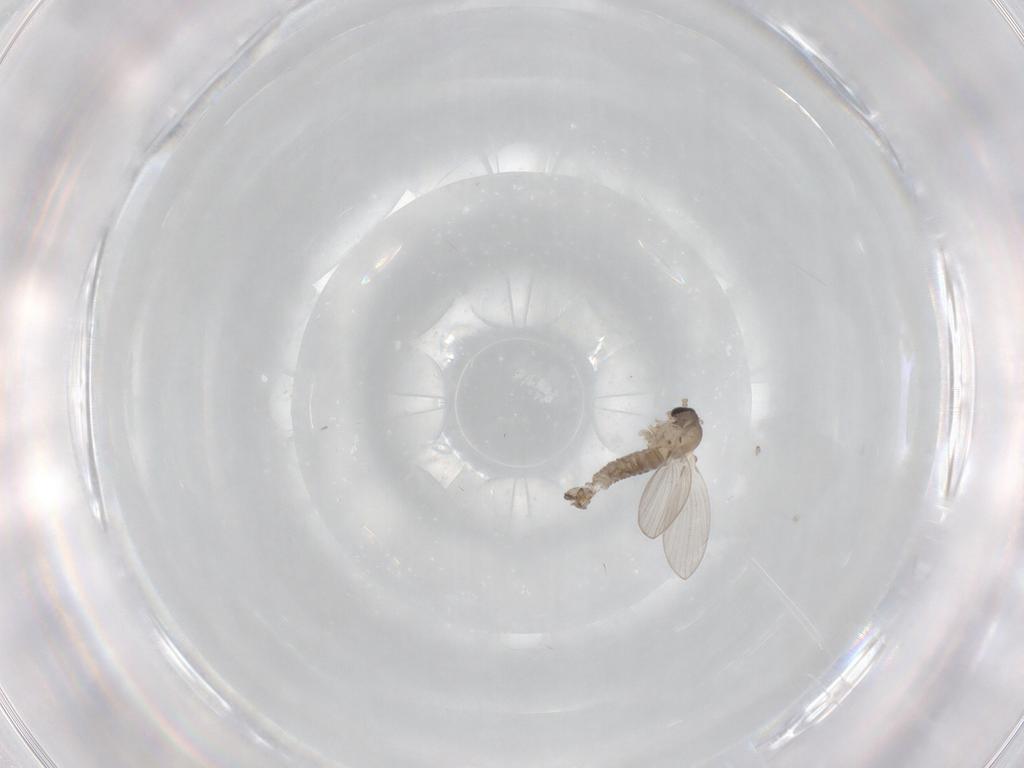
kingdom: Animalia
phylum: Arthropoda
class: Insecta
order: Diptera
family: Psychodidae
